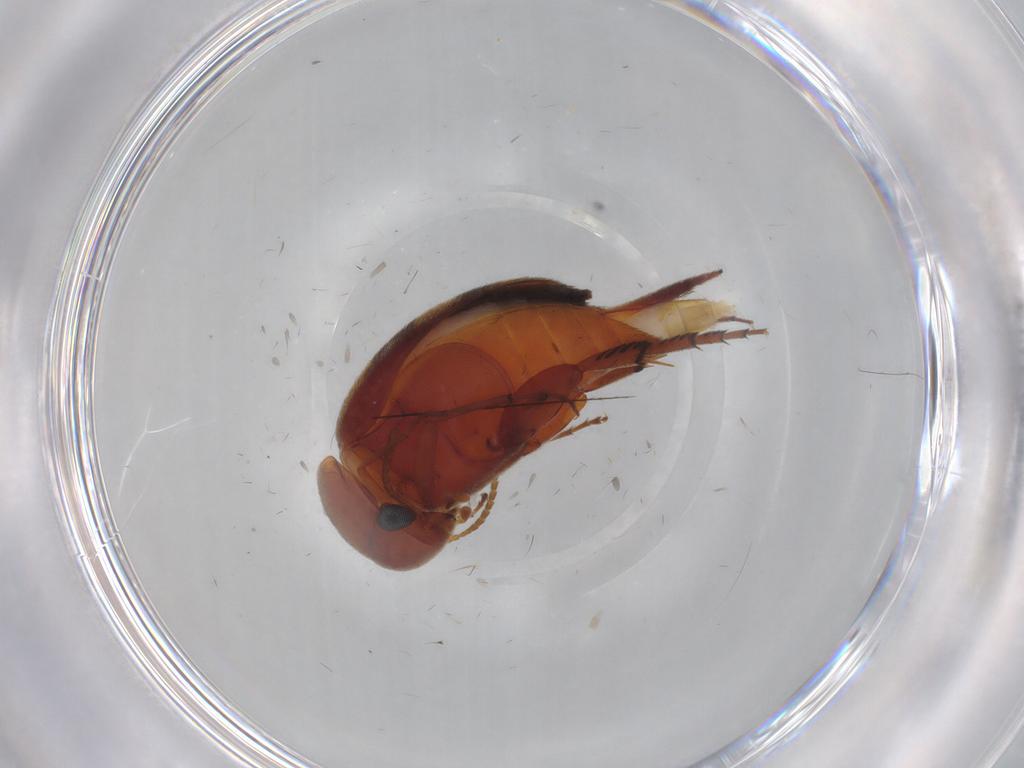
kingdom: Animalia
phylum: Arthropoda
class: Insecta
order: Coleoptera
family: Mordellidae
